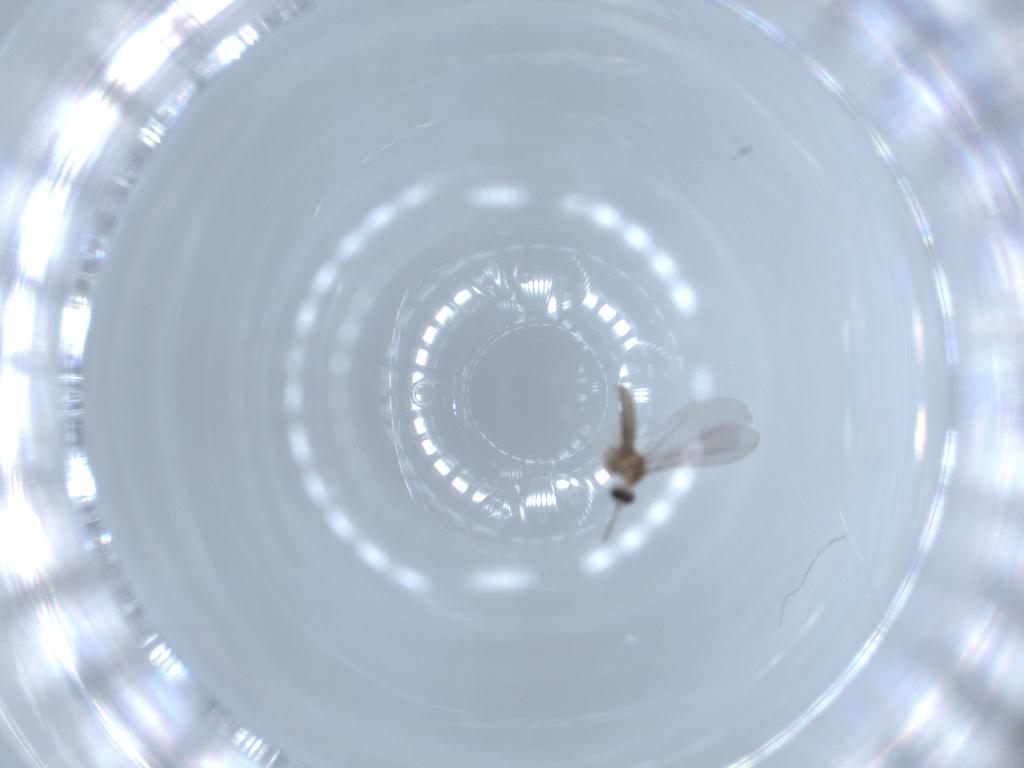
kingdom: Animalia
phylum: Arthropoda
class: Insecta
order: Diptera
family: Cecidomyiidae
